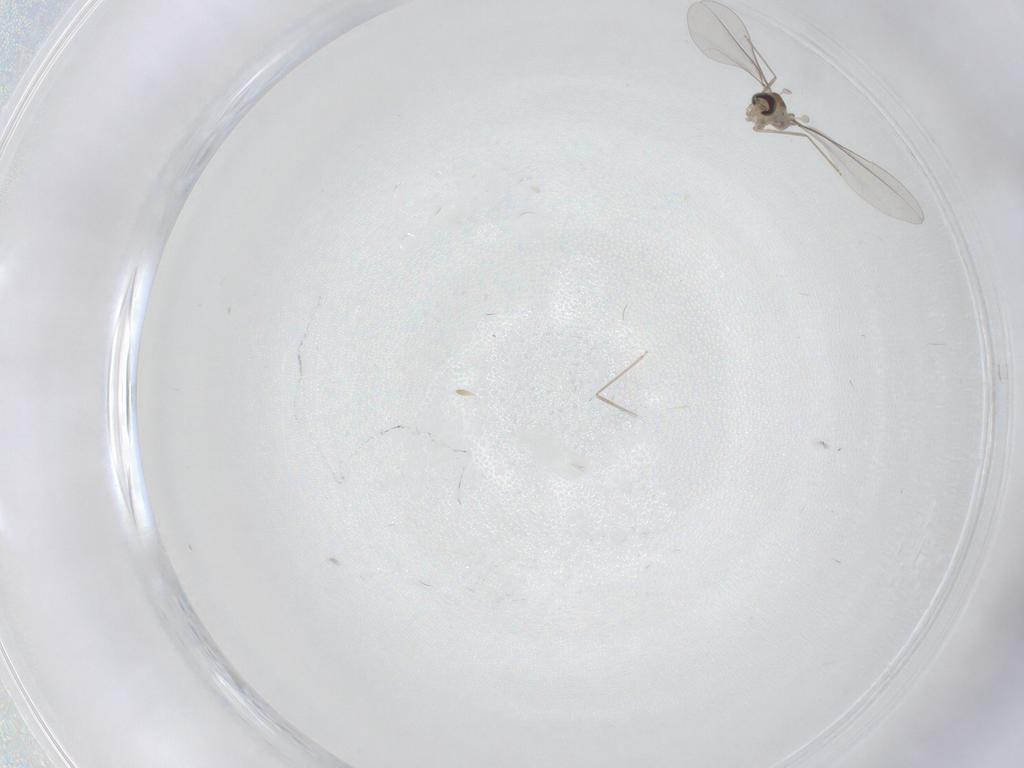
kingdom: Animalia
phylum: Arthropoda
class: Insecta
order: Diptera
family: Cecidomyiidae
